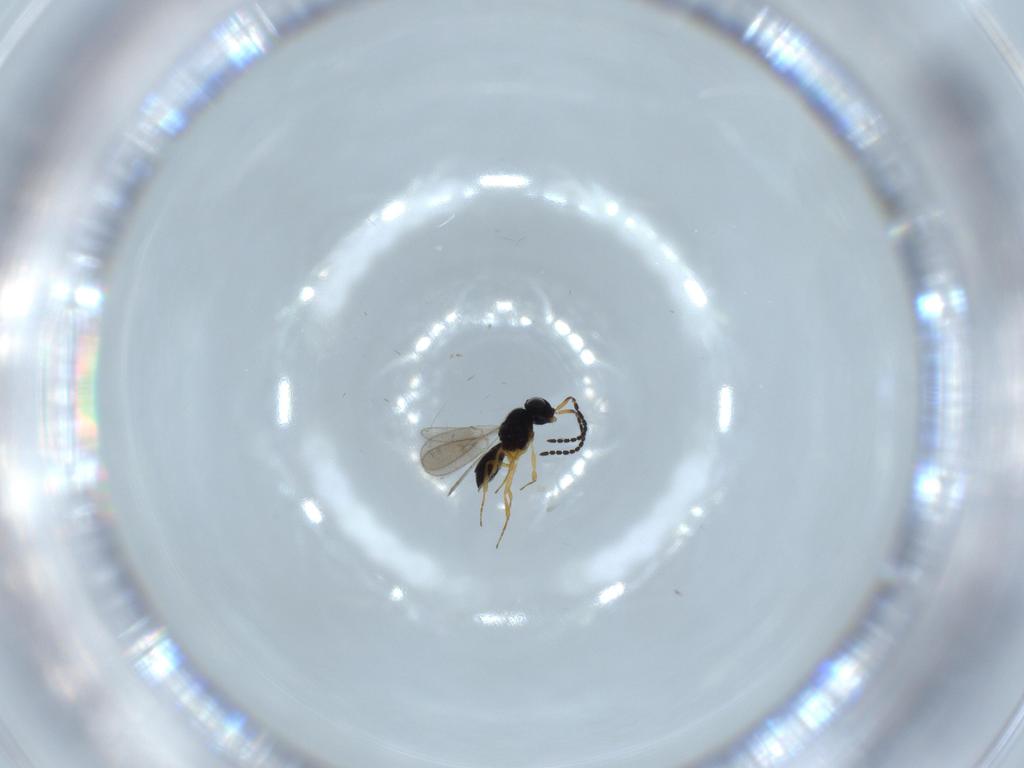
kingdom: Animalia
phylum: Arthropoda
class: Insecta
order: Hymenoptera
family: Scelionidae
